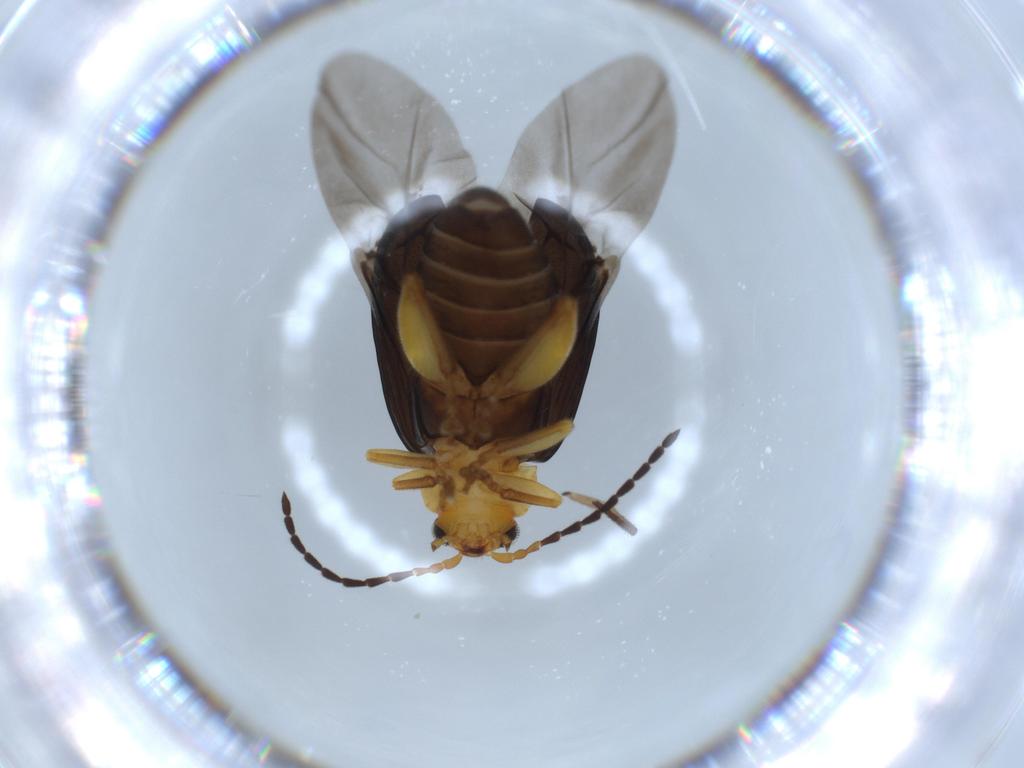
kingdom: Animalia
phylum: Arthropoda
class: Insecta
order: Coleoptera
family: Chrysomelidae
